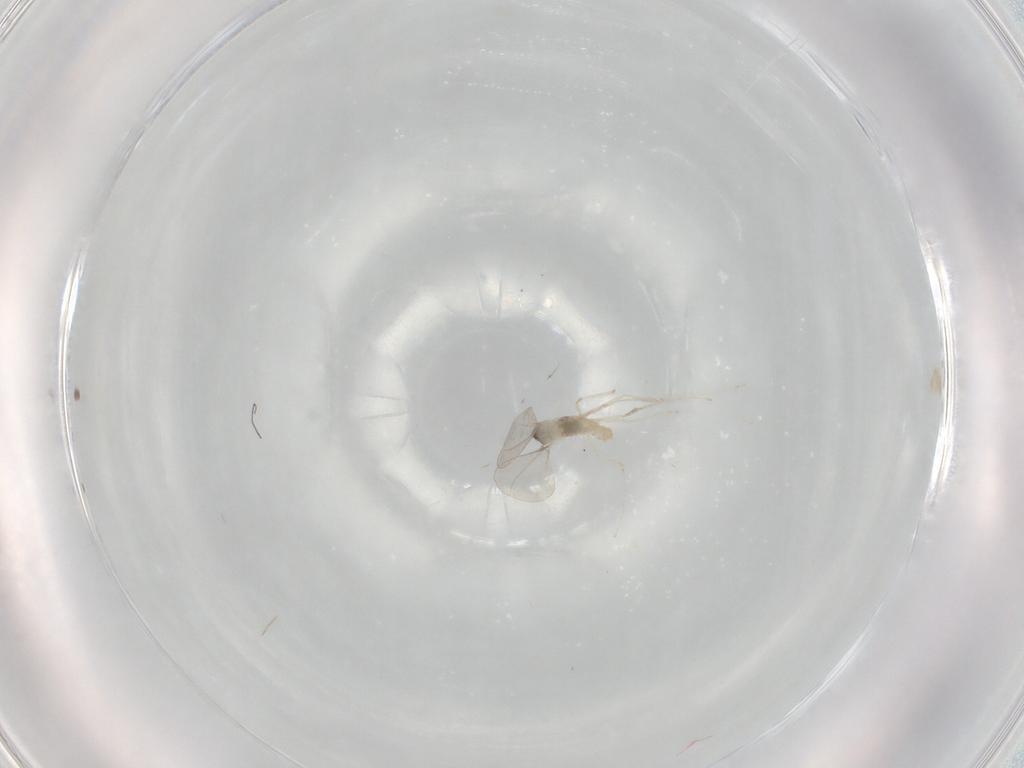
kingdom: Animalia
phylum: Arthropoda
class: Insecta
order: Diptera
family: Cecidomyiidae
